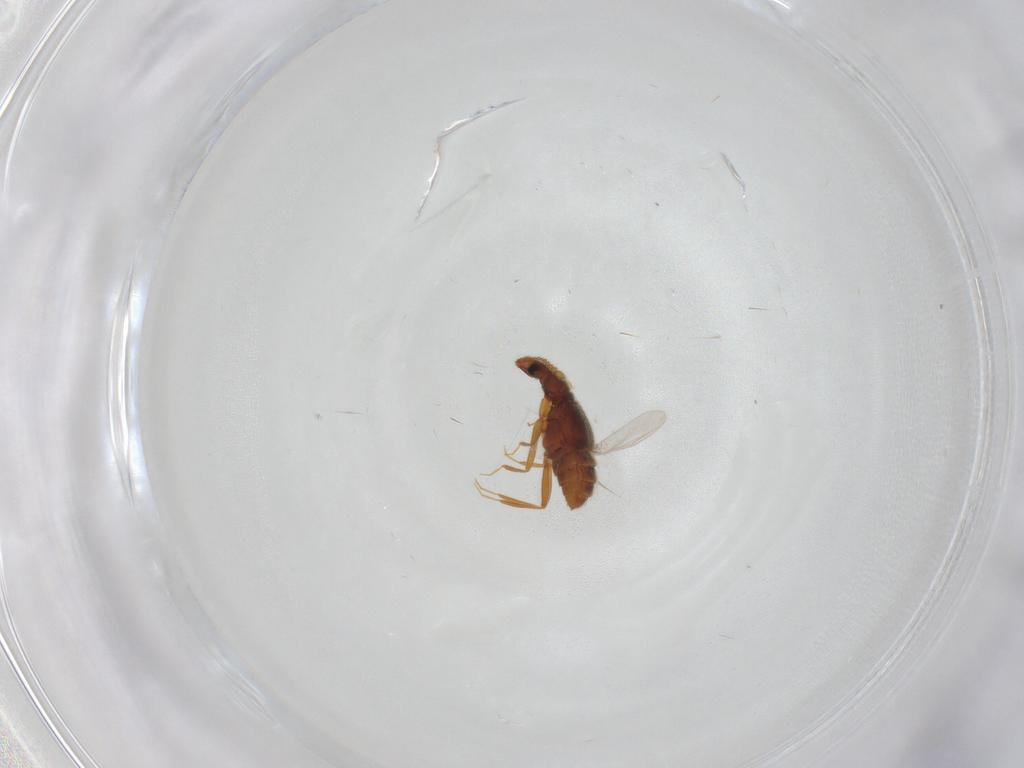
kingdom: Animalia
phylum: Arthropoda
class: Insecta
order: Coleoptera
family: Staphylinidae
